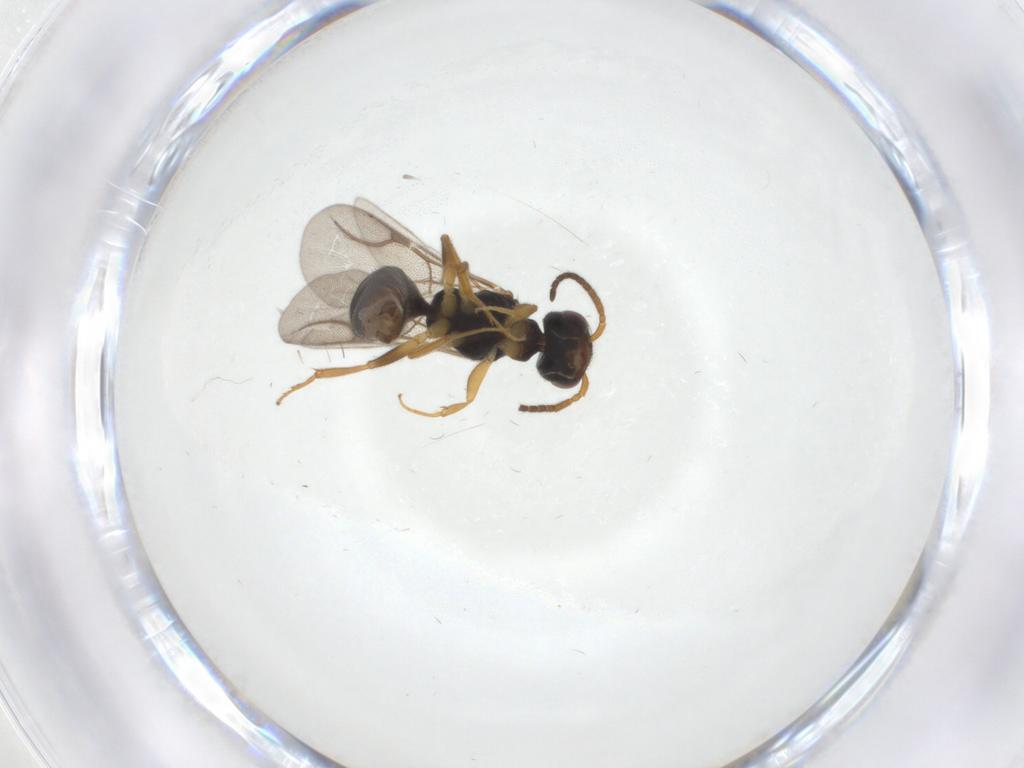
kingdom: Animalia
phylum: Arthropoda
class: Insecta
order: Hymenoptera
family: Bethylidae
